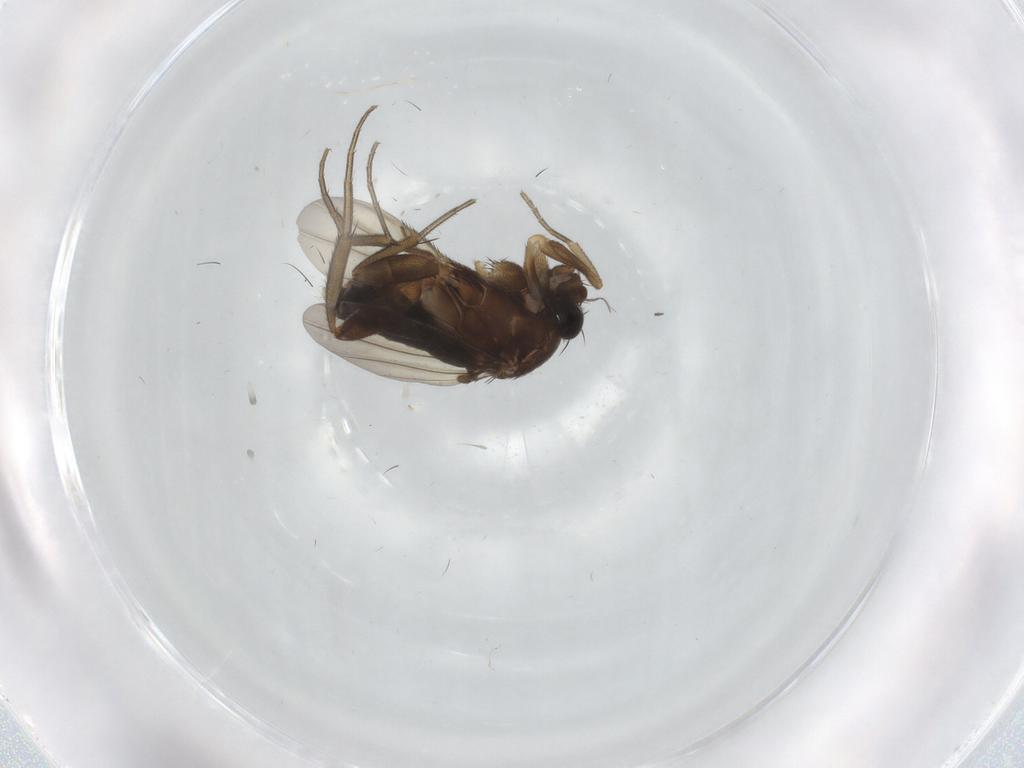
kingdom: Animalia
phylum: Arthropoda
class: Insecta
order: Diptera
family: Phoridae
